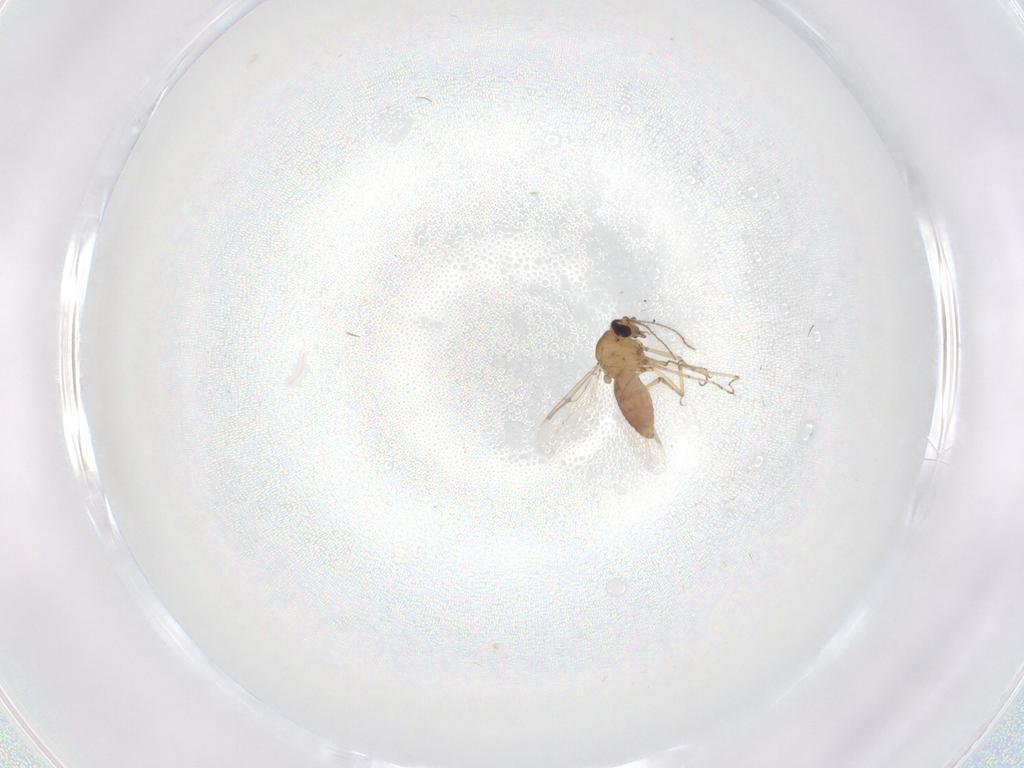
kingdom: Animalia
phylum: Arthropoda
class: Insecta
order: Diptera
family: Ceratopogonidae
